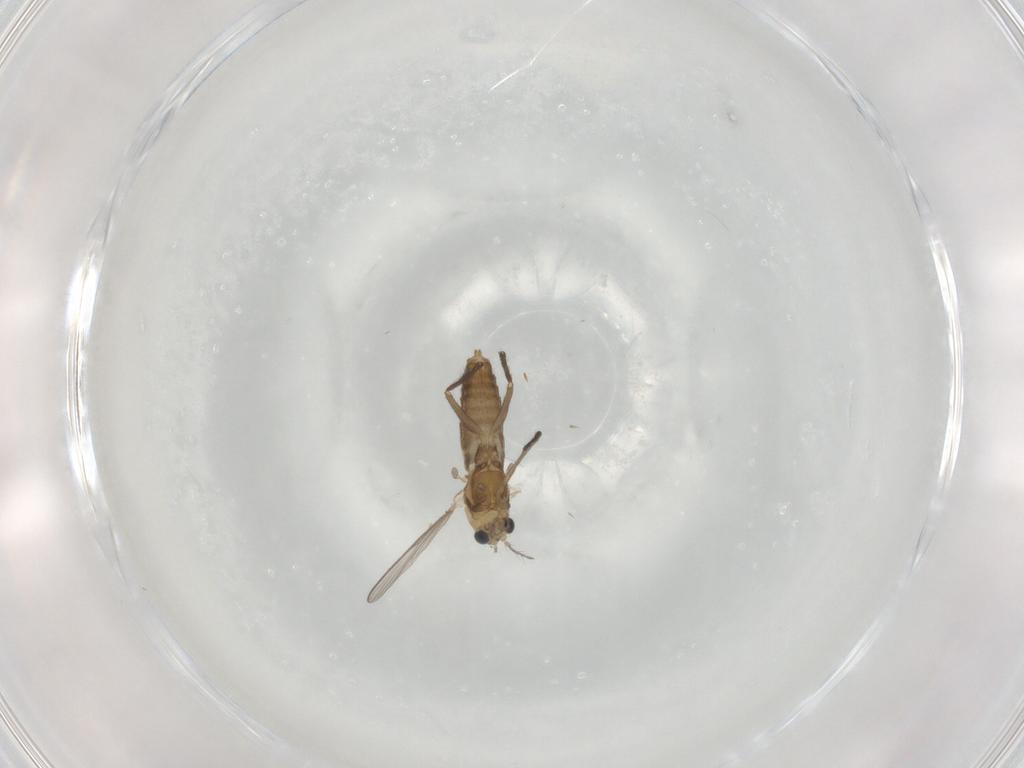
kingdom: Animalia
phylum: Arthropoda
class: Insecta
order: Diptera
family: Chironomidae
